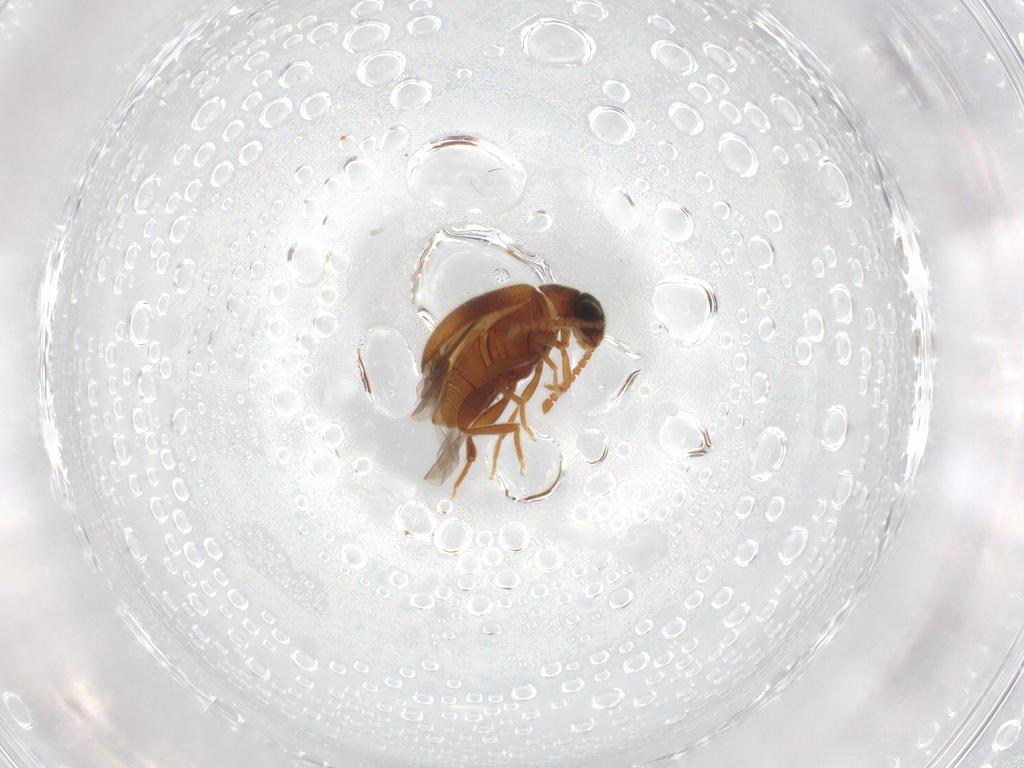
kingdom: Animalia
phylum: Arthropoda
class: Insecta
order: Coleoptera
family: Aderidae
